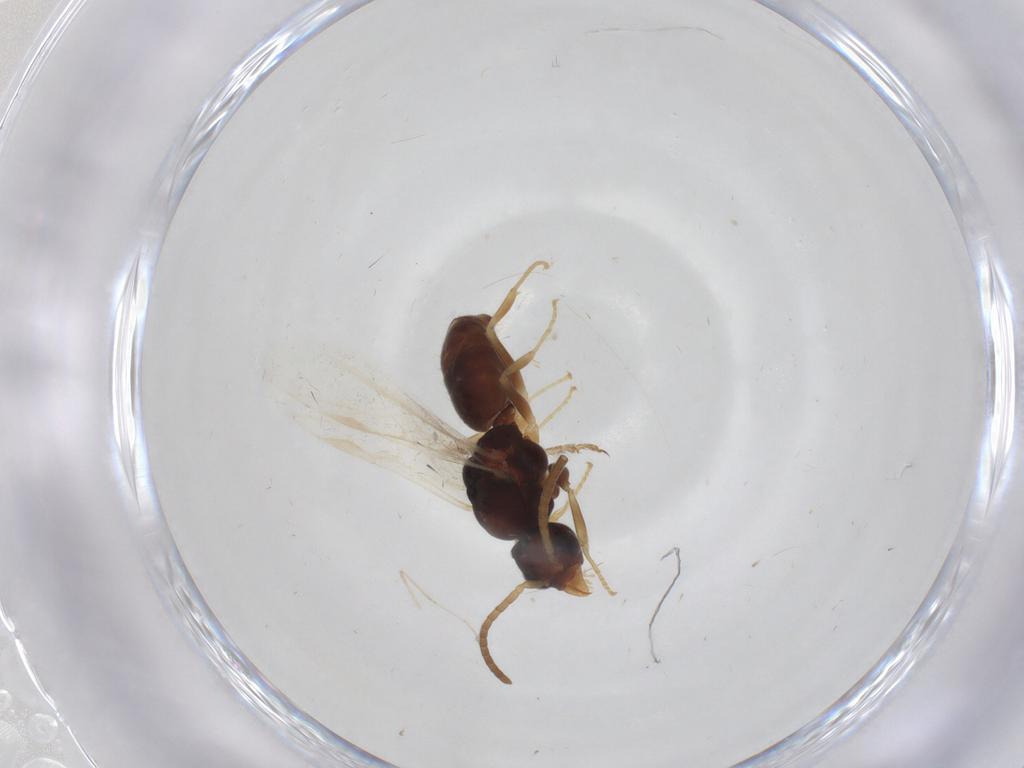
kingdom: Animalia
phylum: Arthropoda
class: Insecta
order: Hymenoptera
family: Formicidae
